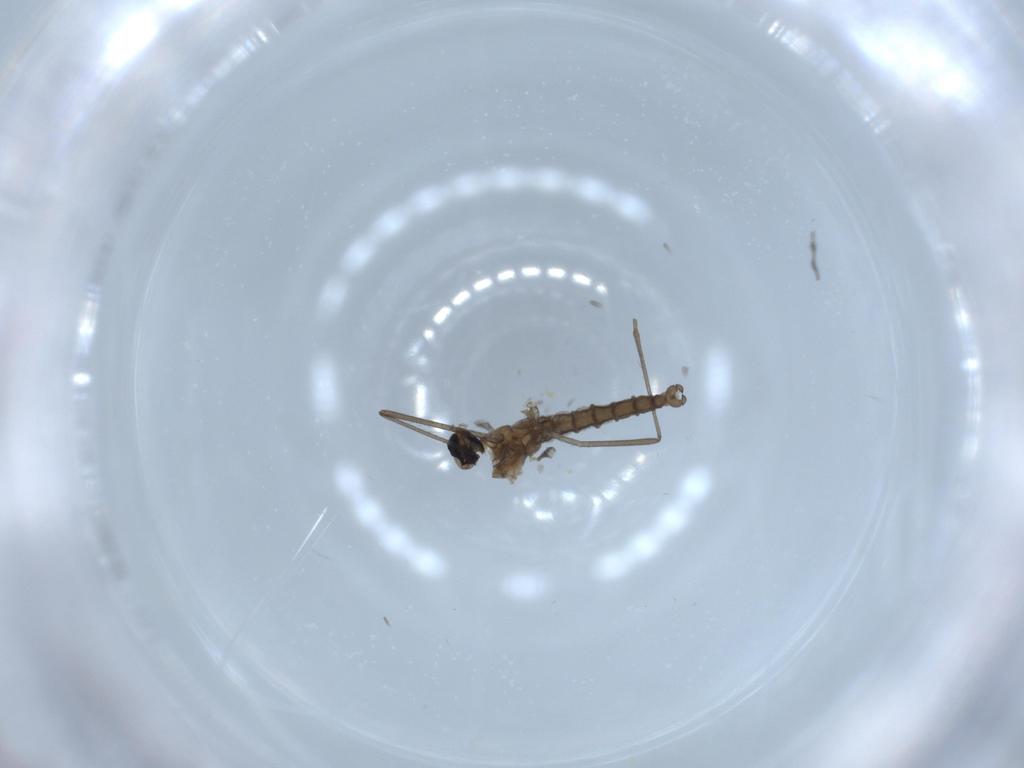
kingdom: Animalia
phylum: Arthropoda
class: Insecta
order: Diptera
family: Cecidomyiidae
